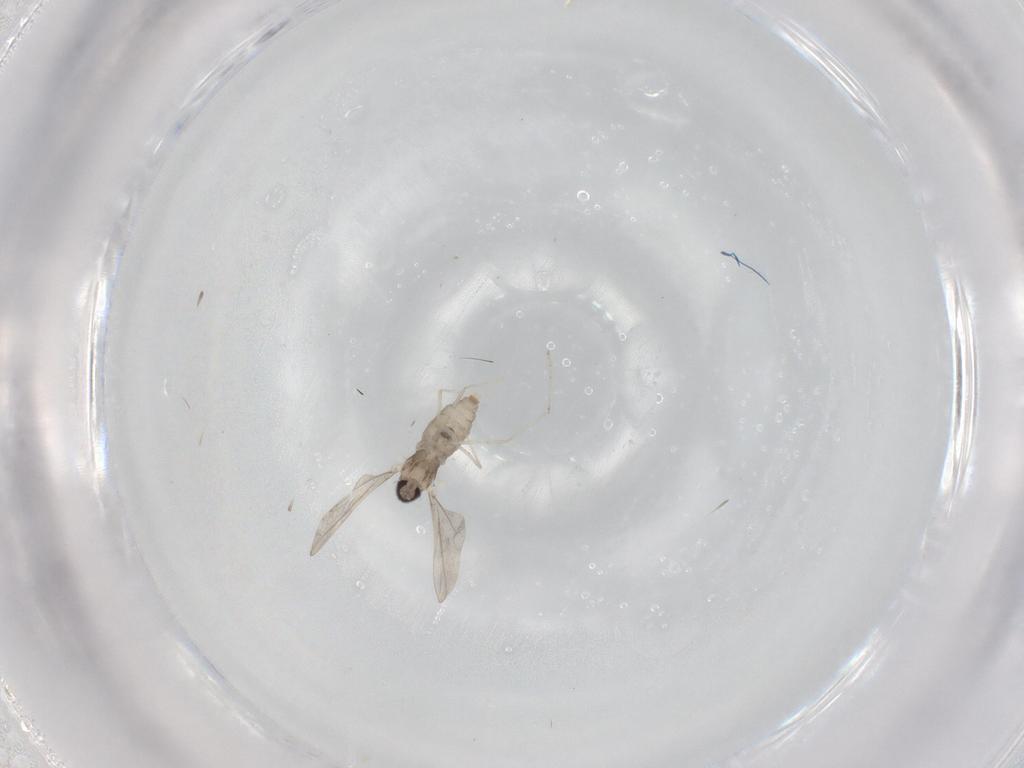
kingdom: Animalia
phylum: Arthropoda
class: Insecta
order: Diptera
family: Cecidomyiidae
